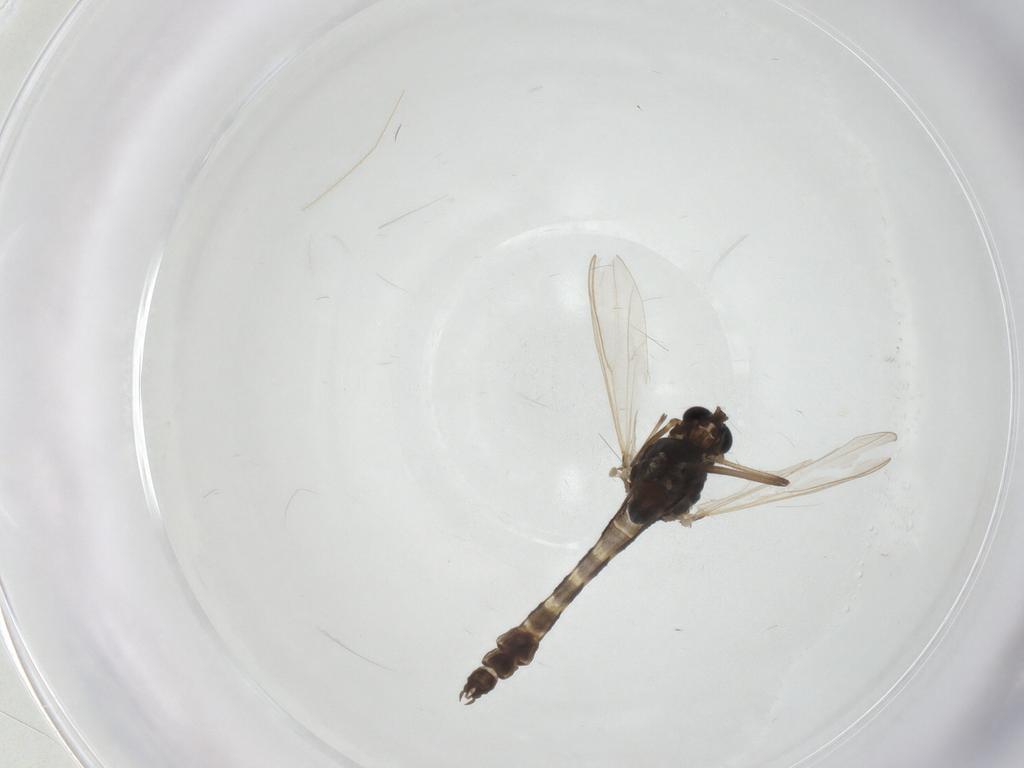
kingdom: Animalia
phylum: Arthropoda
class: Insecta
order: Diptera
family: Chironomidae
